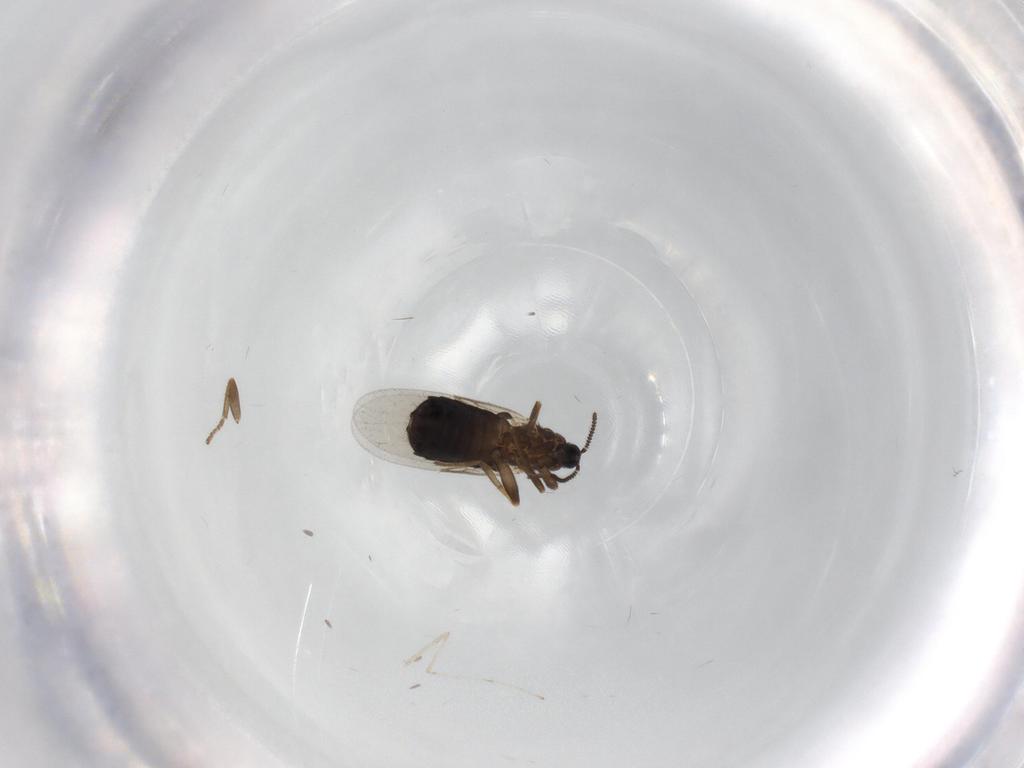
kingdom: Animalia
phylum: Arthropoda
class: Insecta
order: Diptera
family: Scatopsidae
